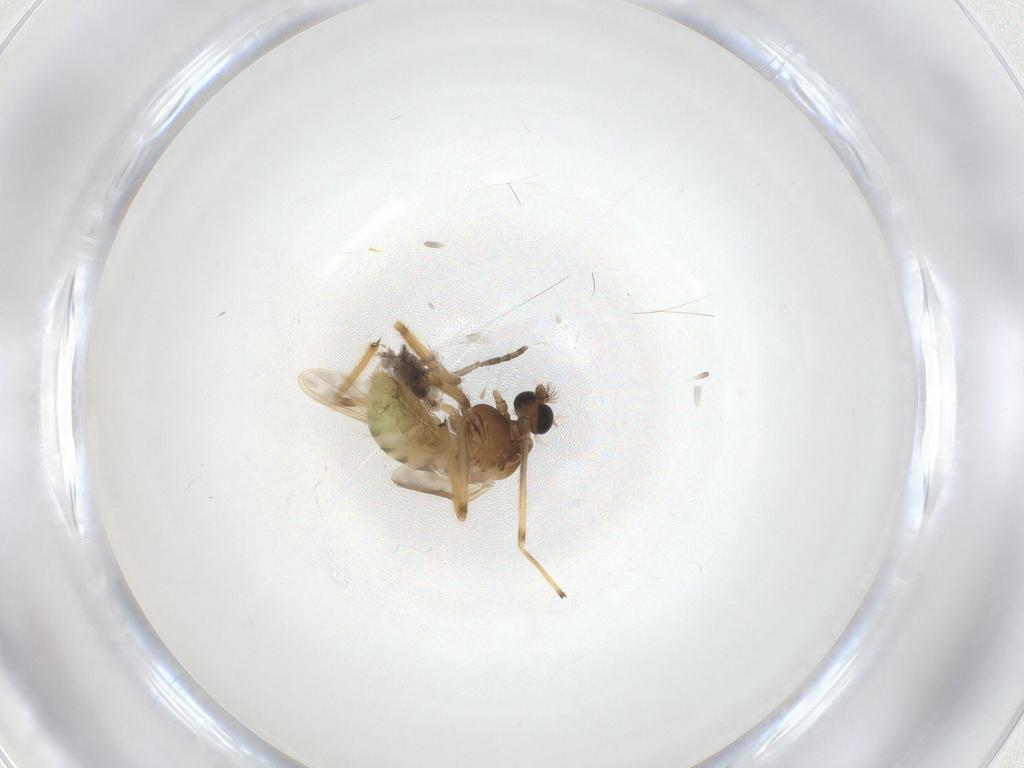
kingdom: Animalia
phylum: Arthropoda
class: Insecta
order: Diptera
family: Chironomidae
